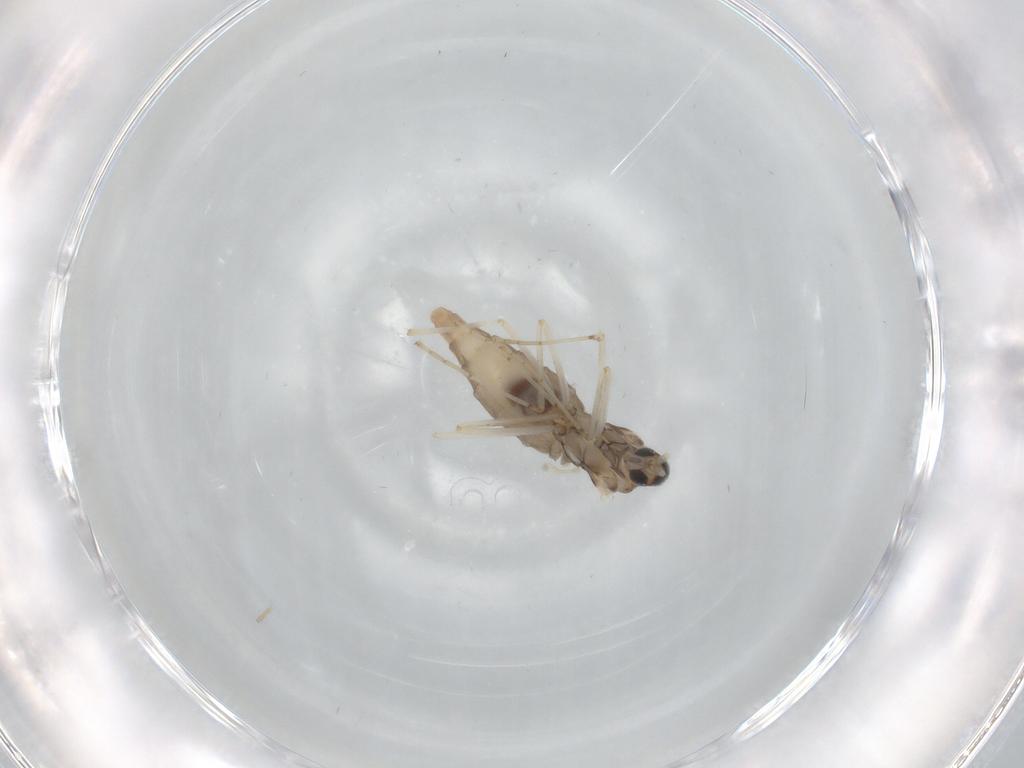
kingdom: Animalia
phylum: Arthropoda
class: Insecta
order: Diptera
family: Cecidomyiidae
